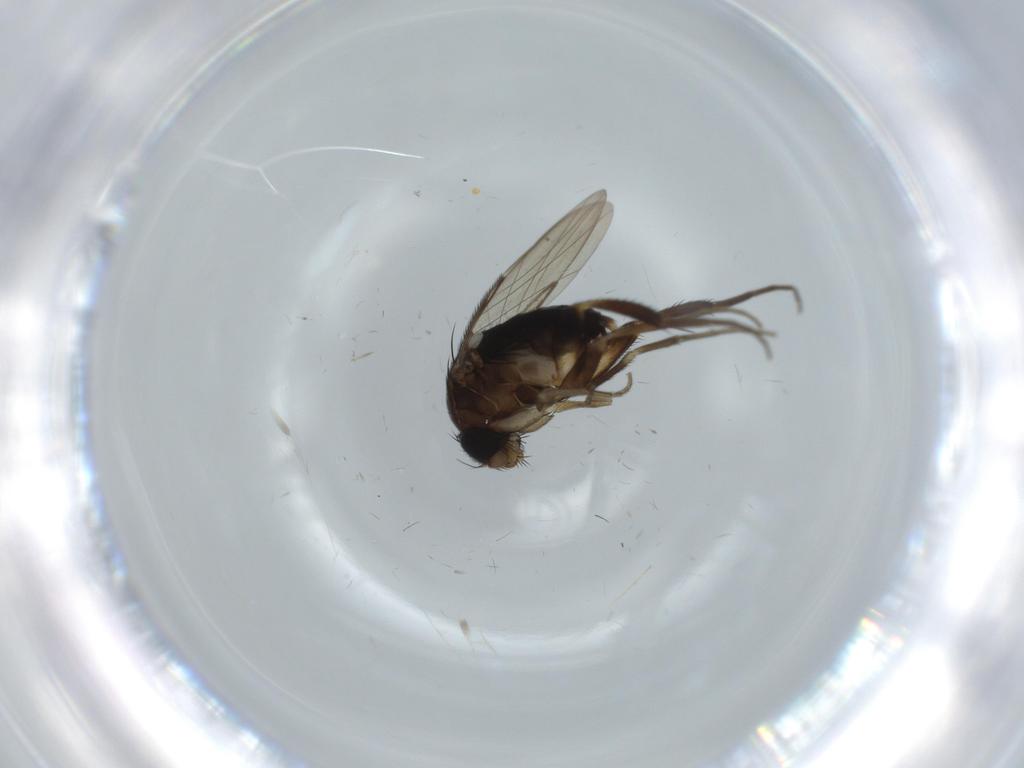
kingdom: Animalia
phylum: Arthropoda
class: Insecta
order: Diptera
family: Phoridae
